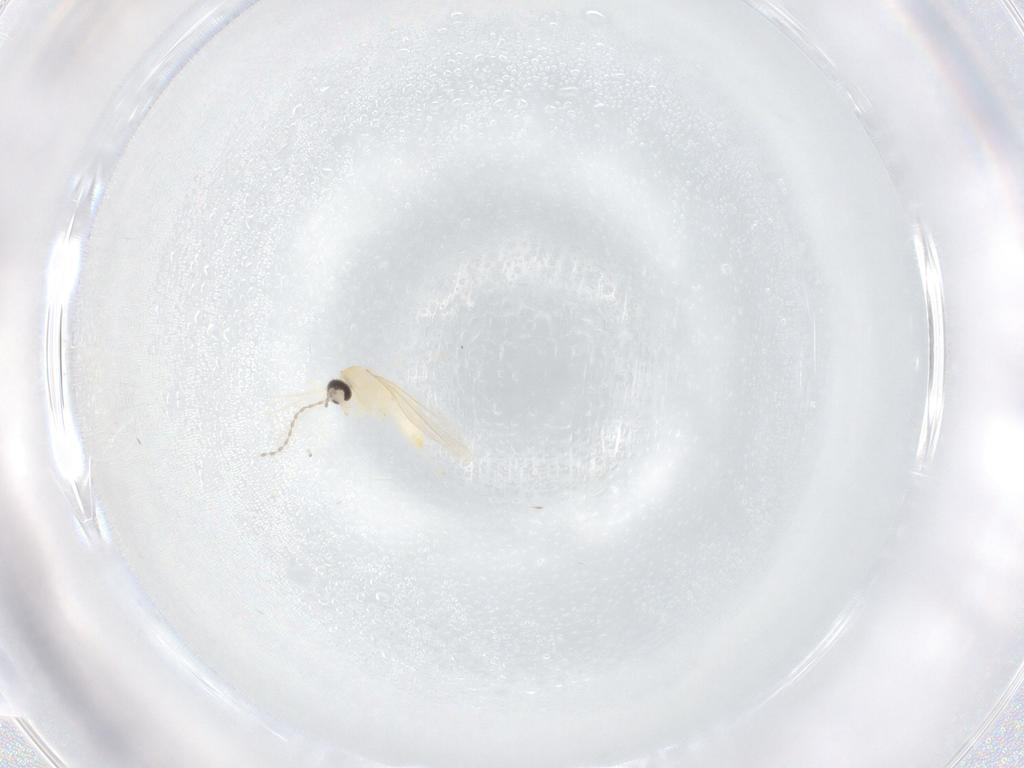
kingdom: Animalia
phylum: Arthropoda
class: Insecta
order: Diptera
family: Cecidomyiidae
